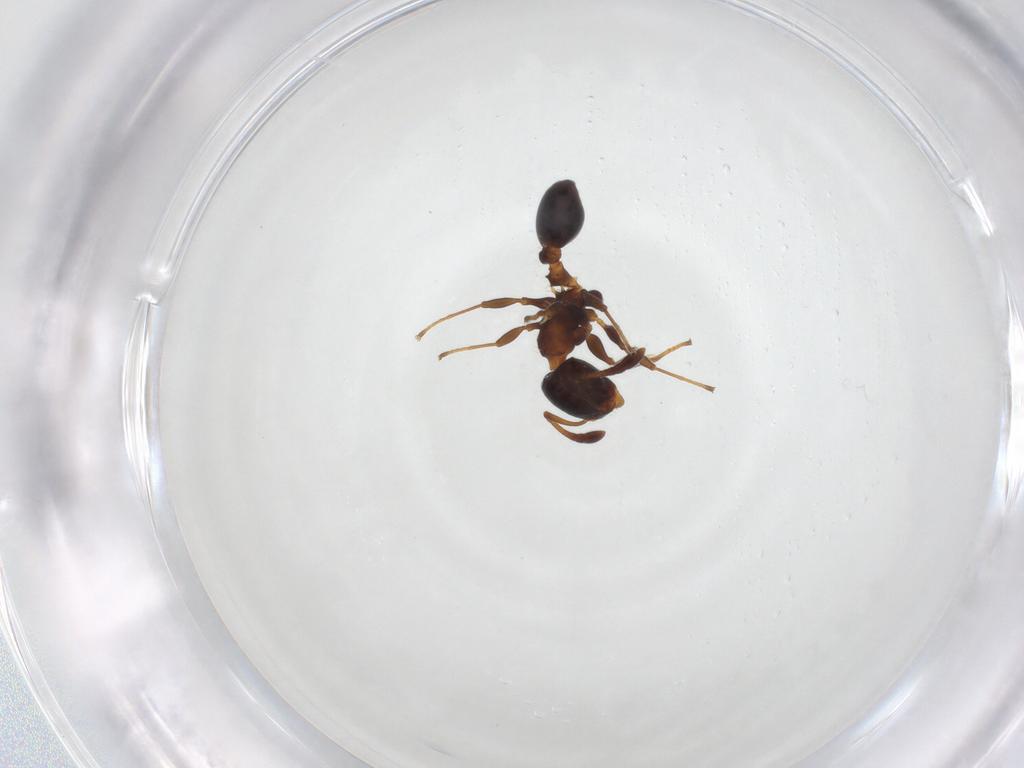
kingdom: Animalia
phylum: Arthropoda
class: Insecta
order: Hymenoptera
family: Formicidae
